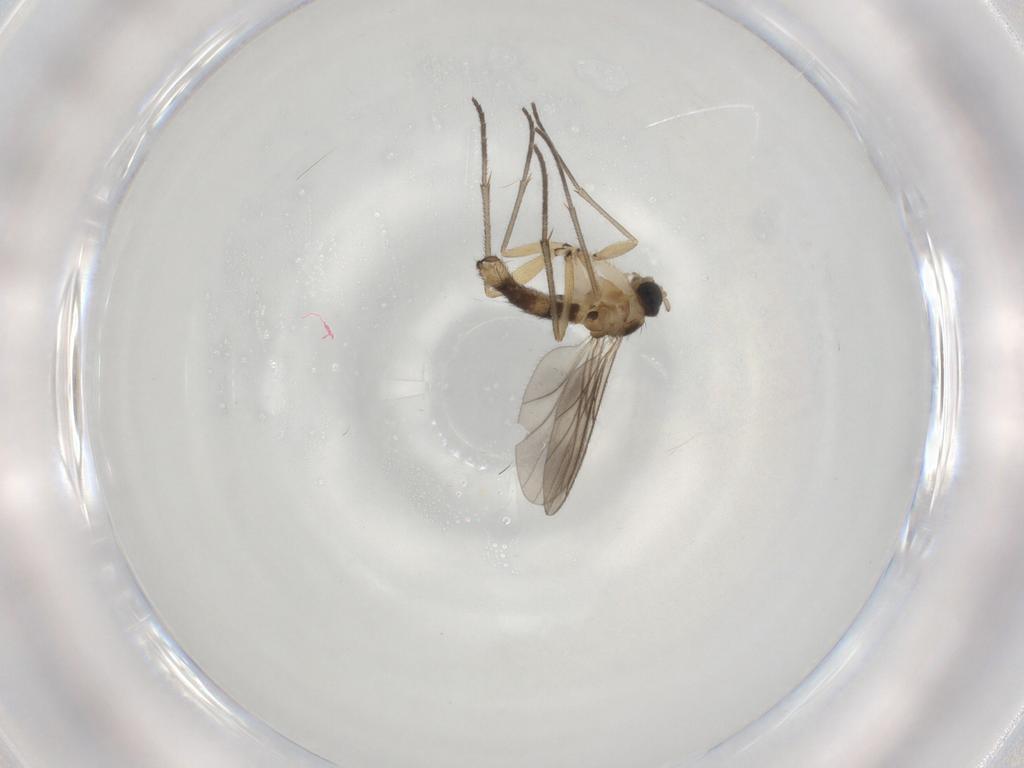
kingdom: Animalia
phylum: Arthropoda
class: Insecta
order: Diptera
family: Sciaridae
